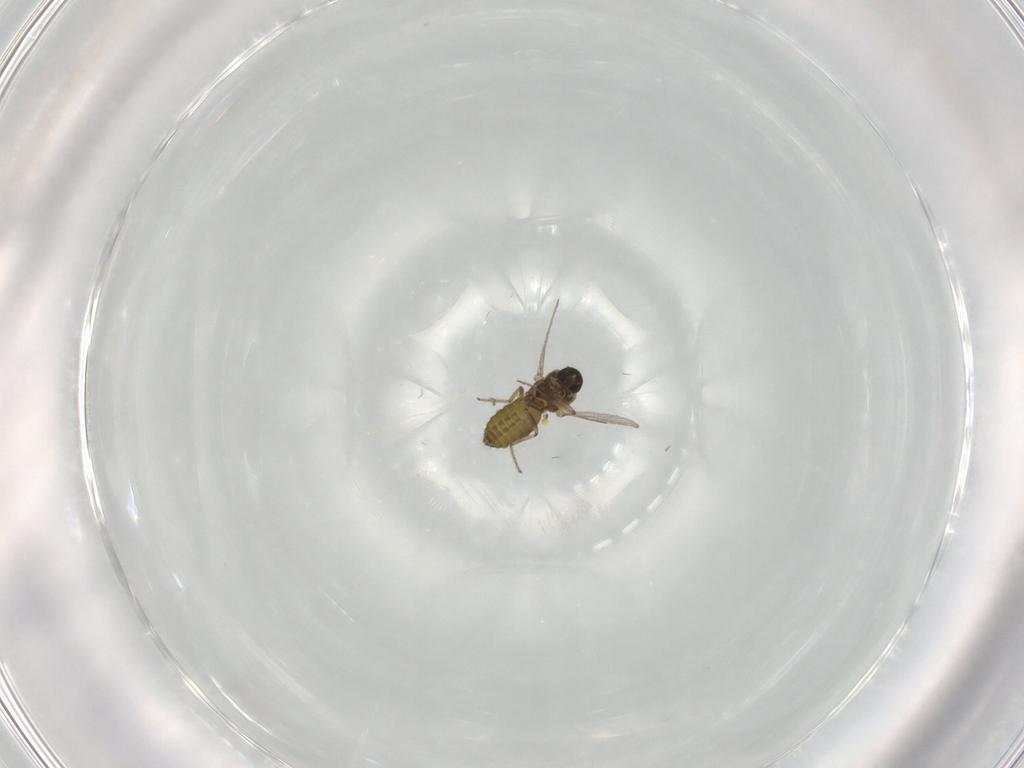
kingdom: Animalia
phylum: Arthropoda
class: Insecta
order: Diptera
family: Ceratopogonidae
